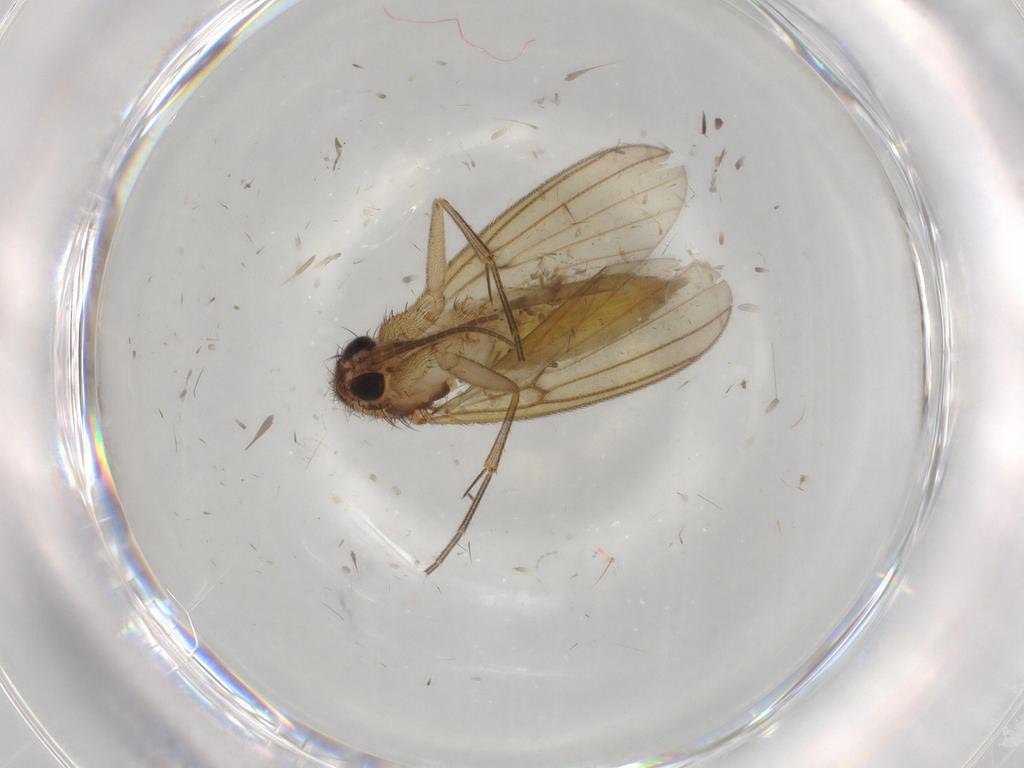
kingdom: Animalia
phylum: Arthropoda
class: Insecta
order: Diptera
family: Mycetophilidae
